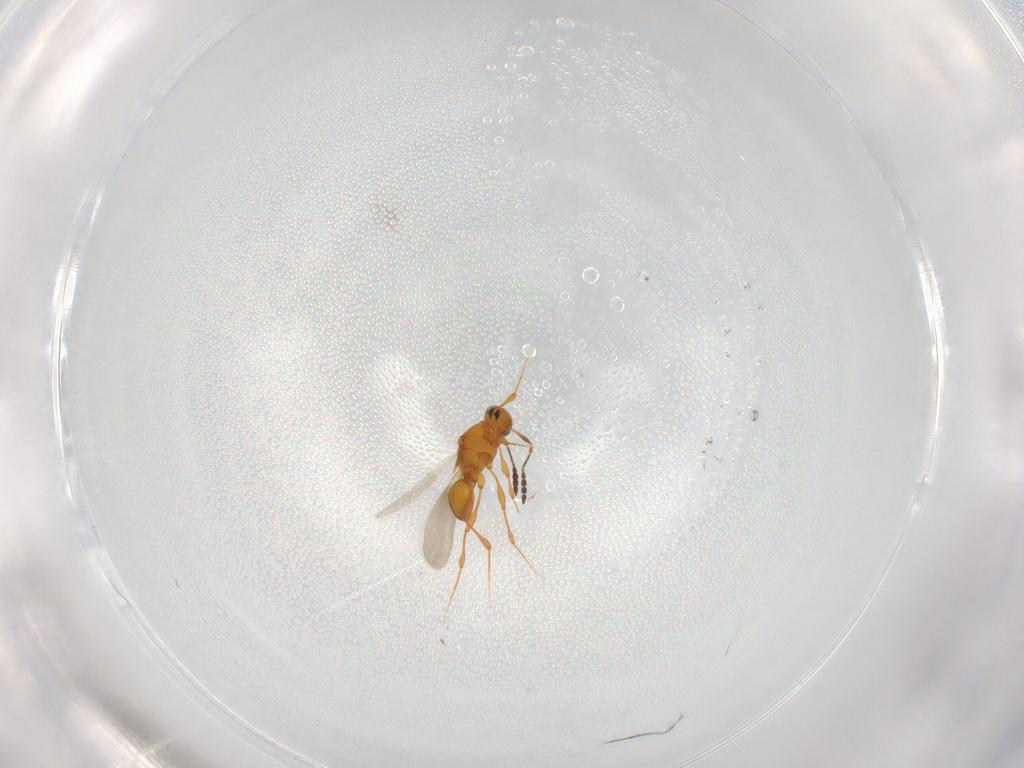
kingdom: Animalia
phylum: Arthropoda
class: Insecta
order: Hymenoptera
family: Platygastridae
